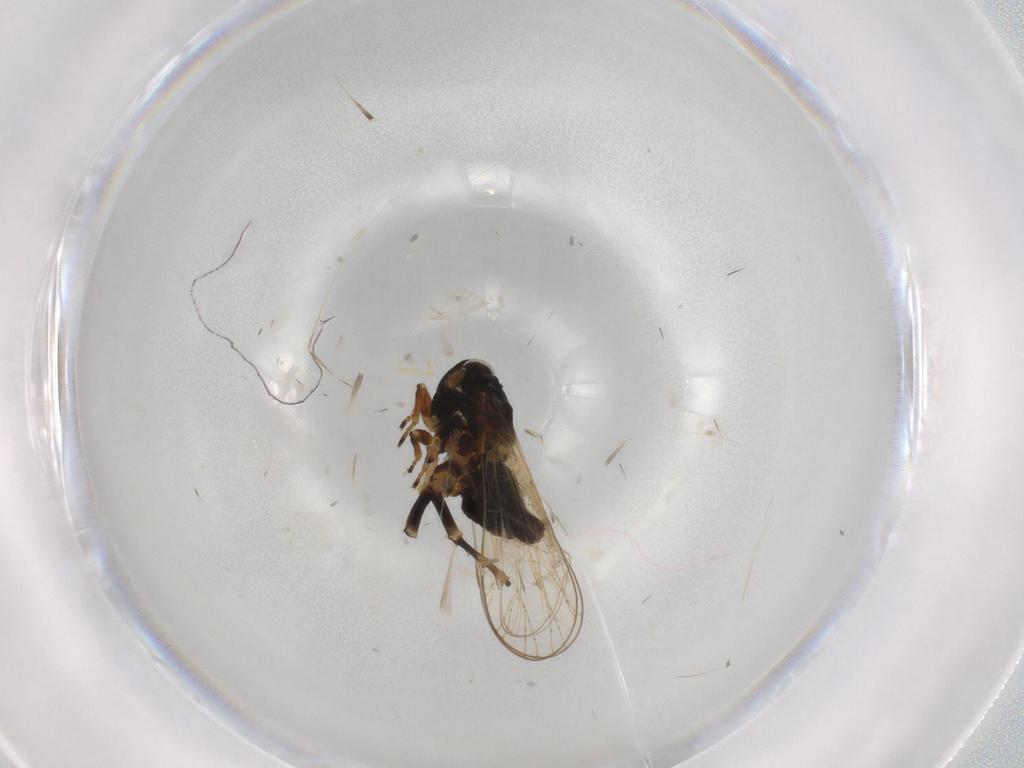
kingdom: Animalia
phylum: Arthropoda
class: Insecta
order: Hemiptera
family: Delphacidae
